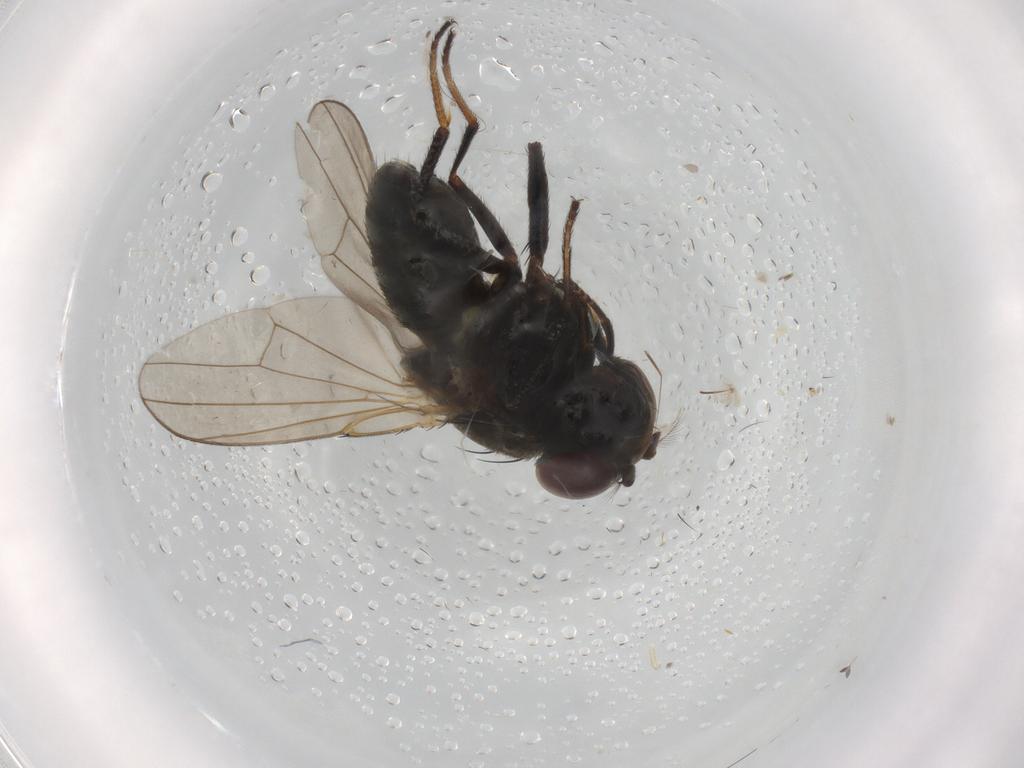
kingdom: Animalia
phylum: Arthropoda
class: Insecta
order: Diptera
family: Ephydridae
